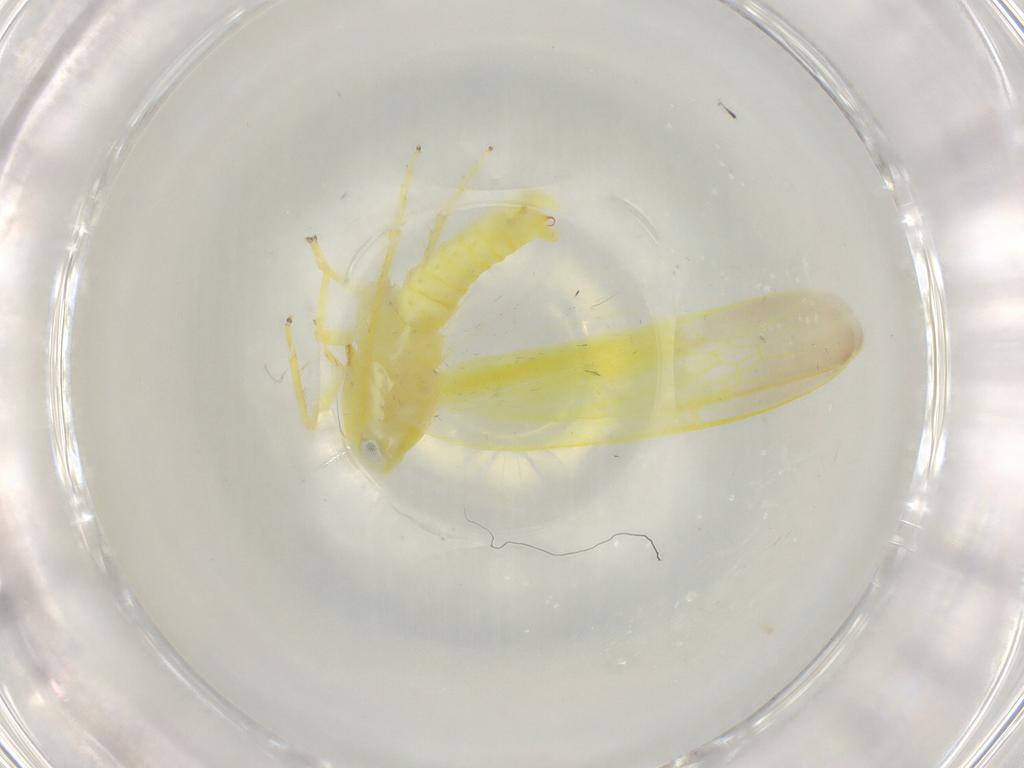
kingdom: Animalia
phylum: Arthropoda
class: Insecta
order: Hemiptera
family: Cicadellidae
